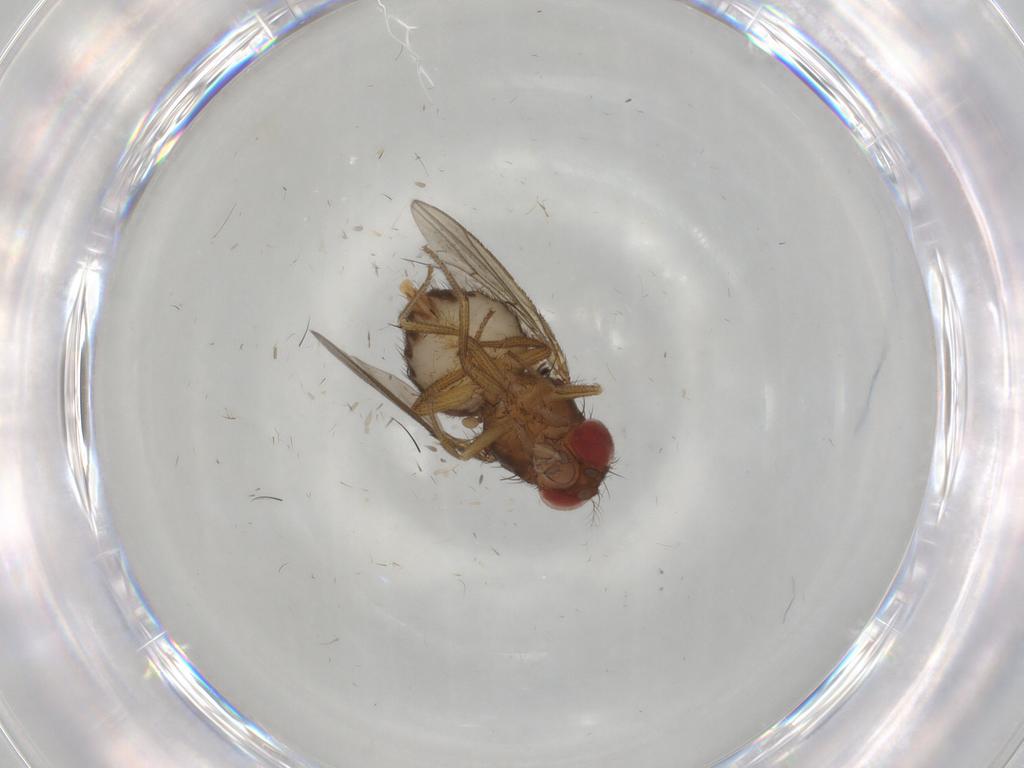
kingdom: Animalia
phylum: Arthropoda
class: Insecta
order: Diptera
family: Drosophilidae
